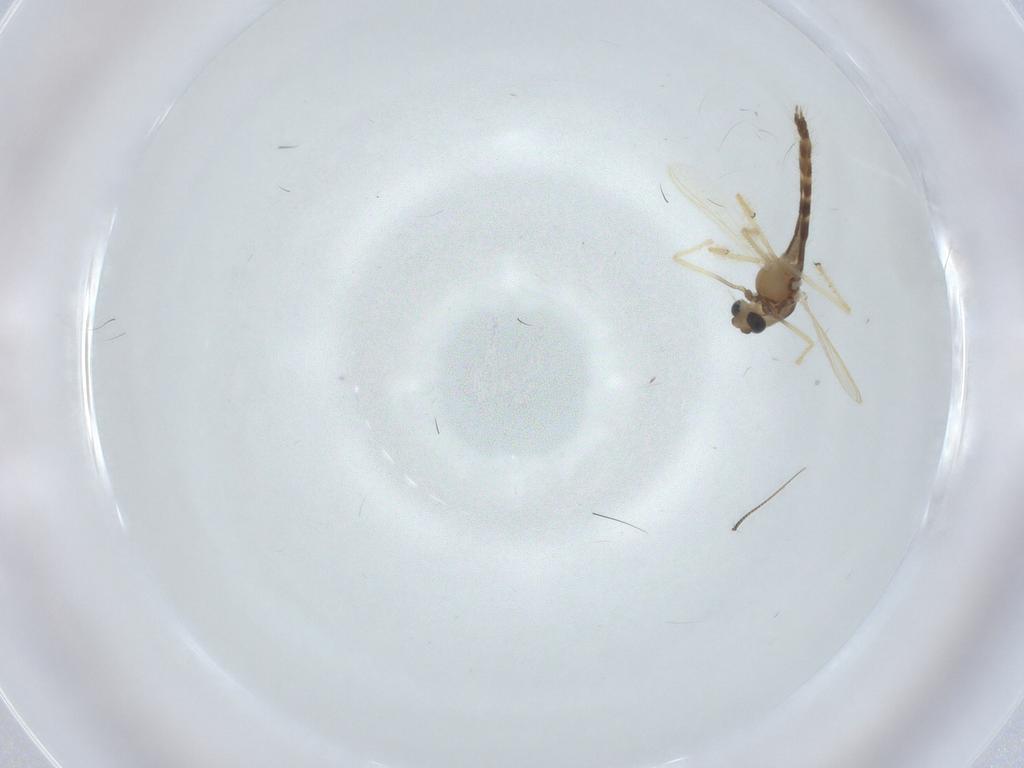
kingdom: Animalia
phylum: Arthropoda
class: Insecta
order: Diptera
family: Chironomidae
